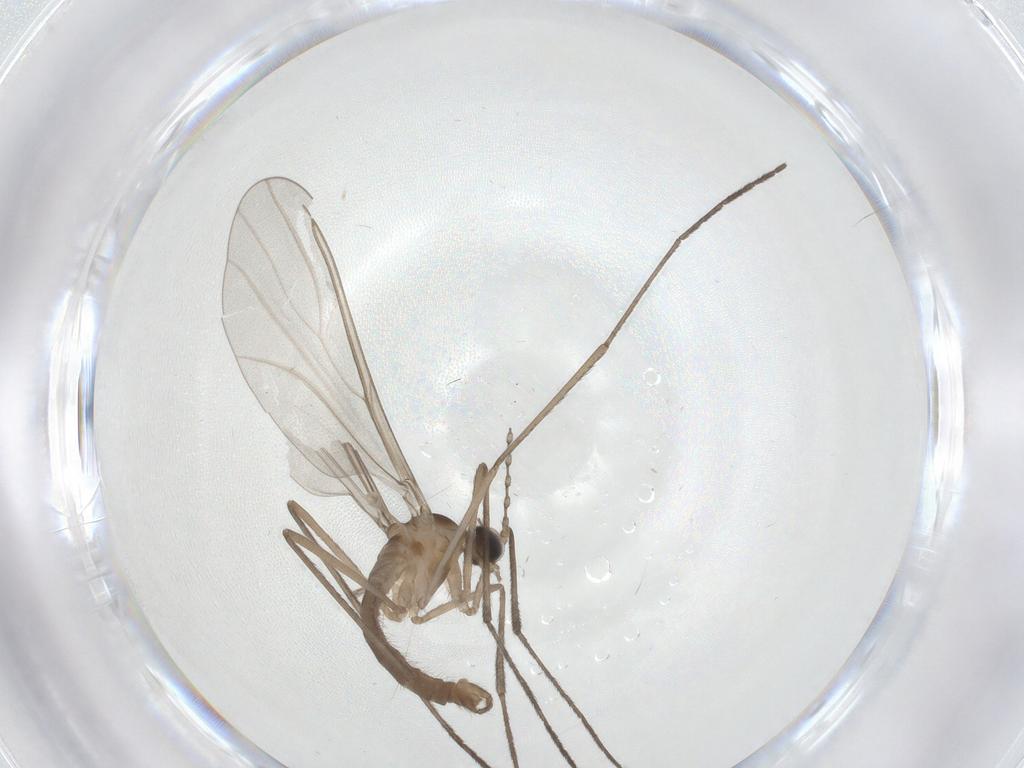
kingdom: Animalia
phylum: Arthropoda
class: Insecta
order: Diptera
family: Cecidomyiidae
